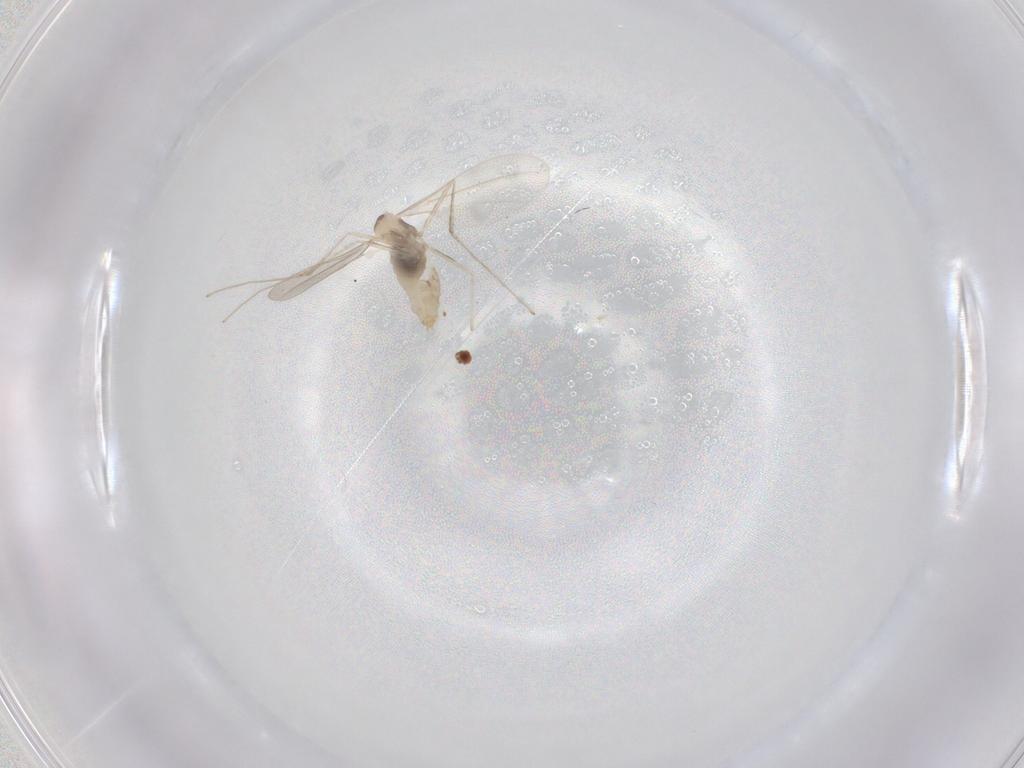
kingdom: Animalia
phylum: Arthropoda
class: Insecta
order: Diptera
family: Cecidomyiidae
